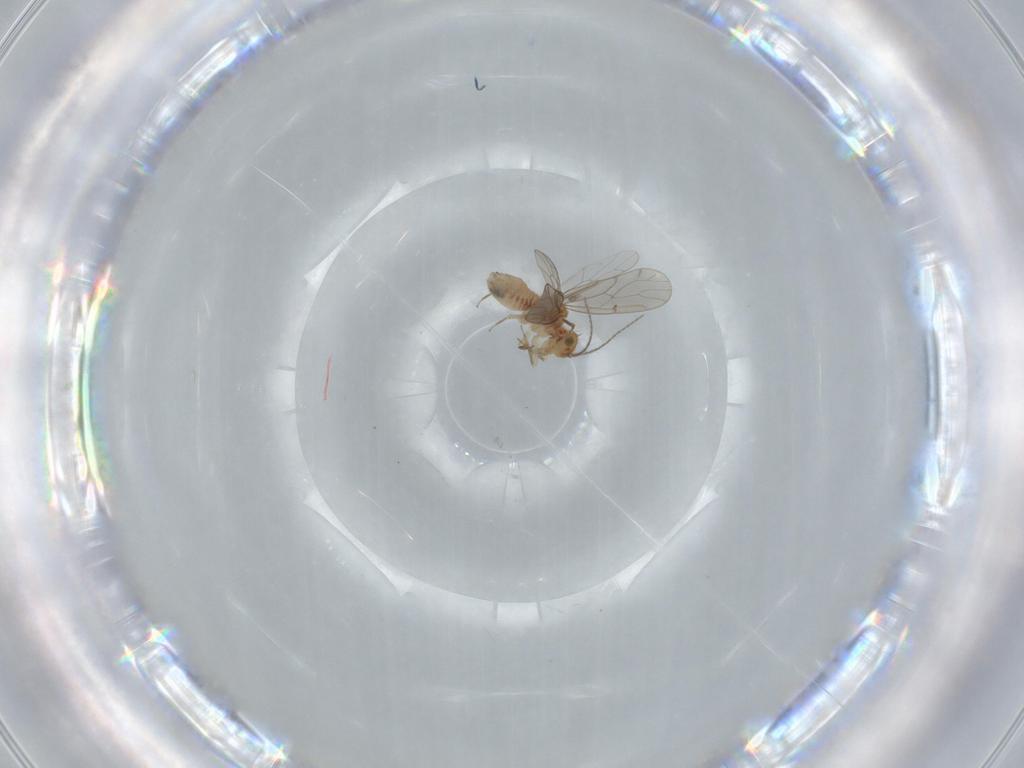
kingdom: Animalia
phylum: Arthropoda
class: Insecta
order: Psocodea
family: Ectopsocidae
